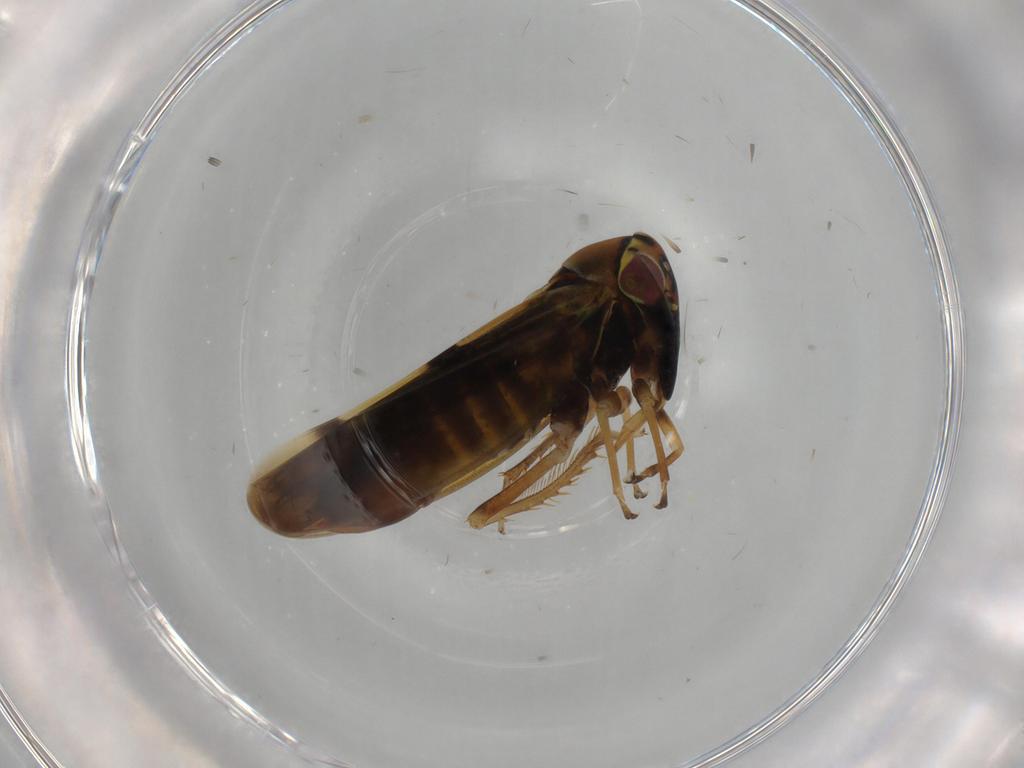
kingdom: Animalia
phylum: Arthropoda
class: Insecta
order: Hemiptera
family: Cicadellidae
